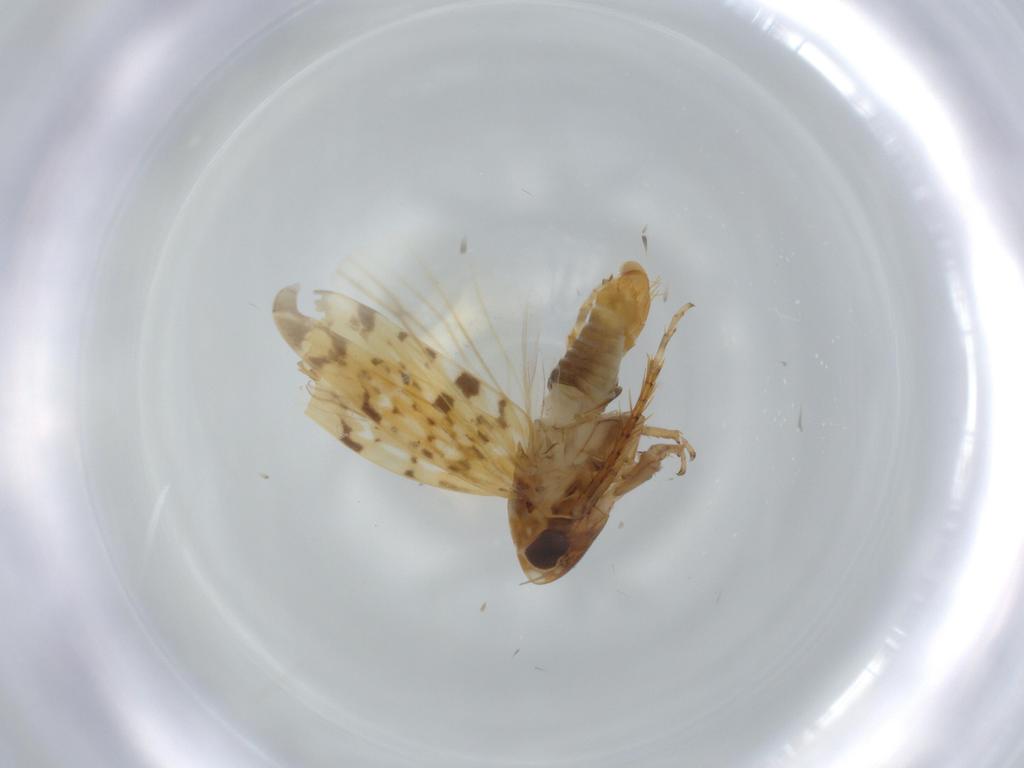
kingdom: Animalia
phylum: Arthropoda
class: Insecta
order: Hemiptera
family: Cicadellidae
